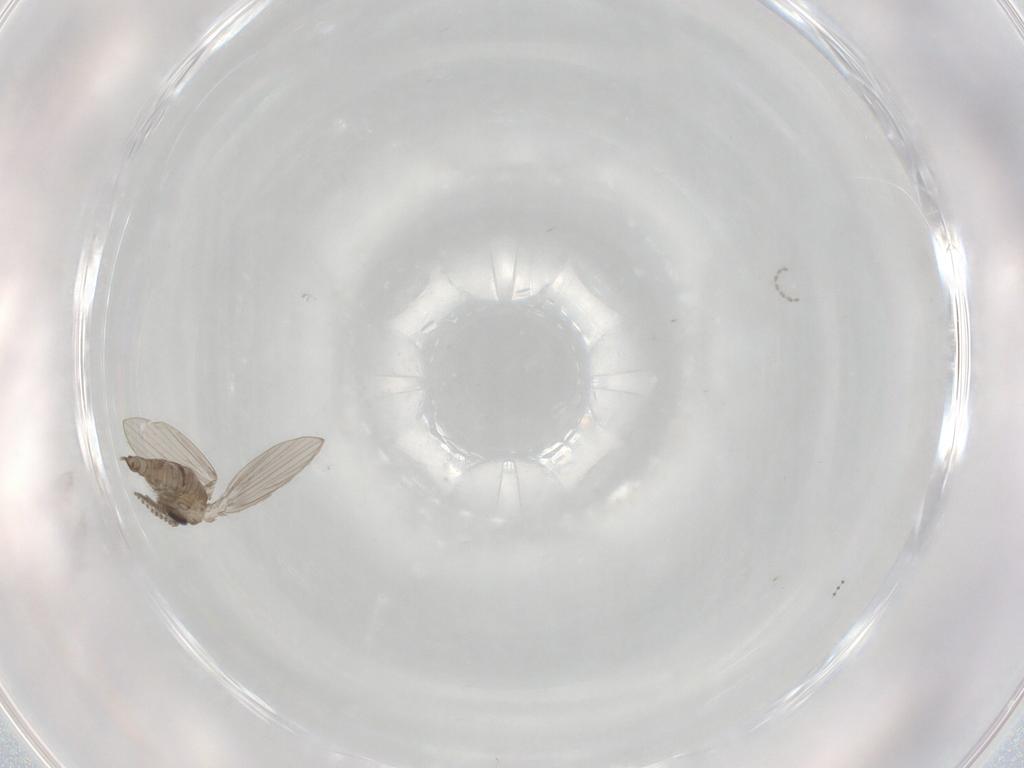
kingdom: Animalia
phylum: Arthropoda
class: Insecta
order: Diptera
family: Psychodidae
